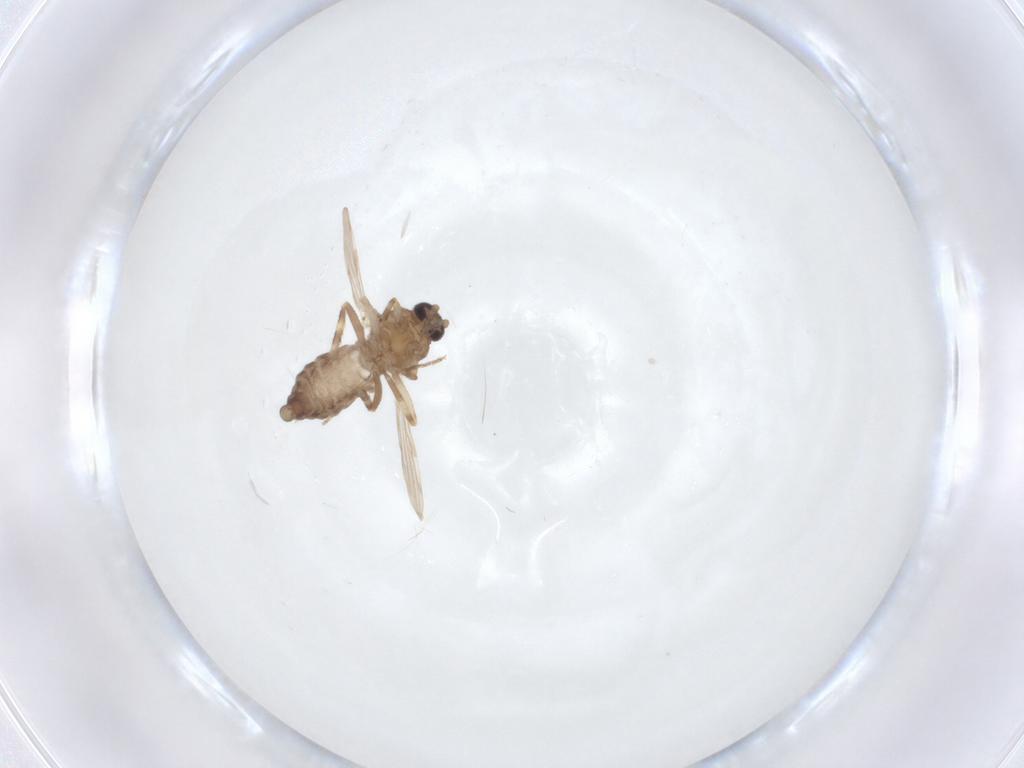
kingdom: Animalia
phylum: Arthropoda
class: Insecta
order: Diptera
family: Ceratopogonidae
